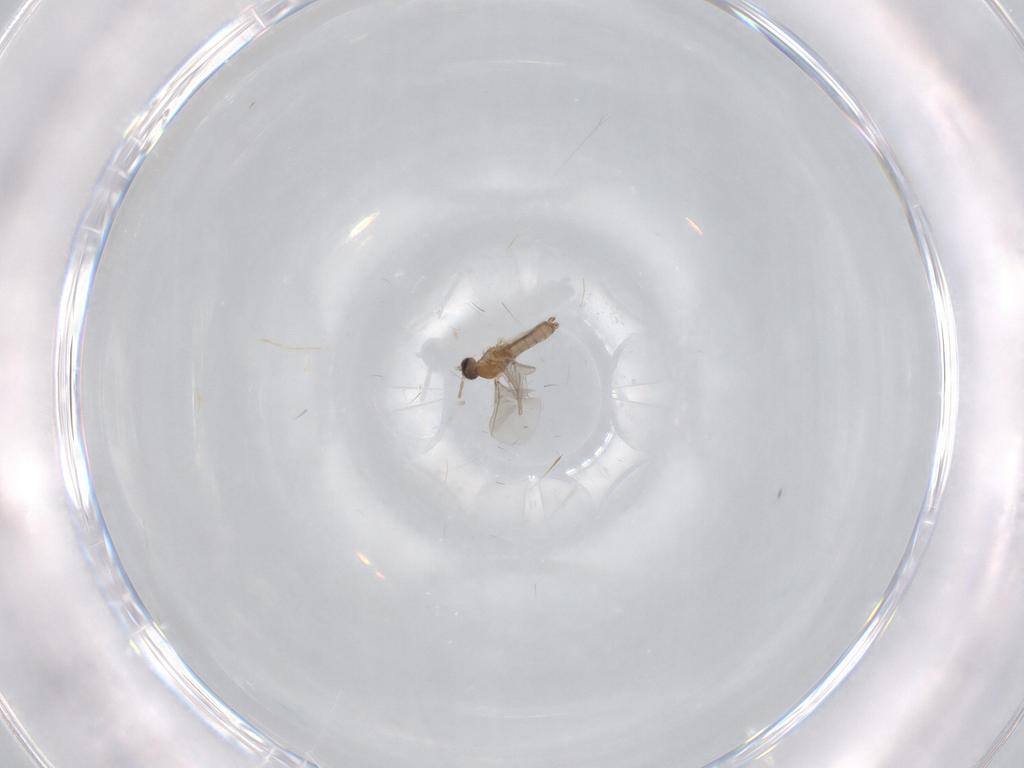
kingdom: Animalia
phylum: Arthropoda
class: Insecta
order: Diptera
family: Cecidomyiidae
